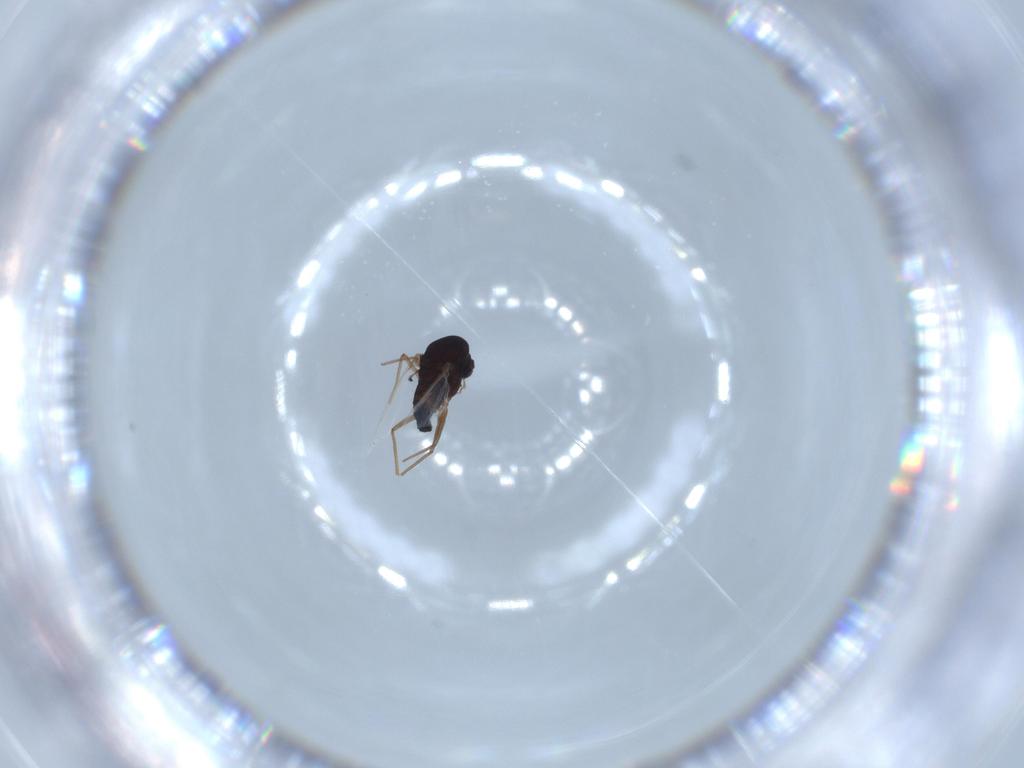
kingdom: Animalia
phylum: Arthropoda
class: Insecta
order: Diptera
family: Chironomidae
